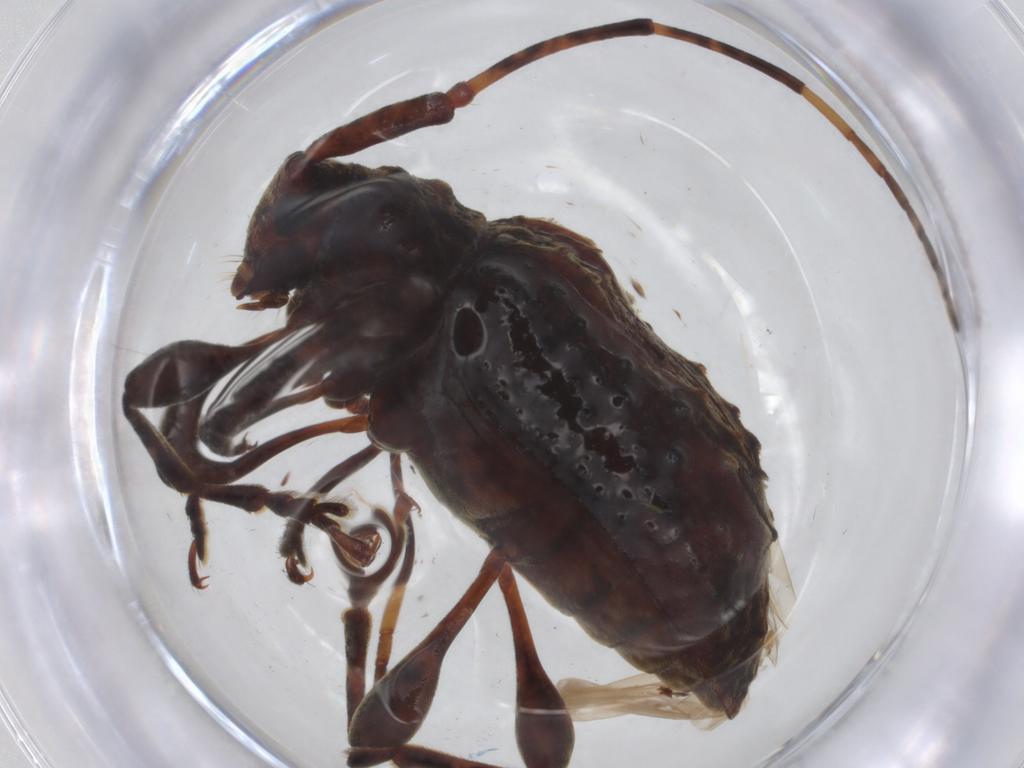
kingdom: Animalia
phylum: Arthropoda
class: Insecta
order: Coleoptera
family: Cerambycidae
